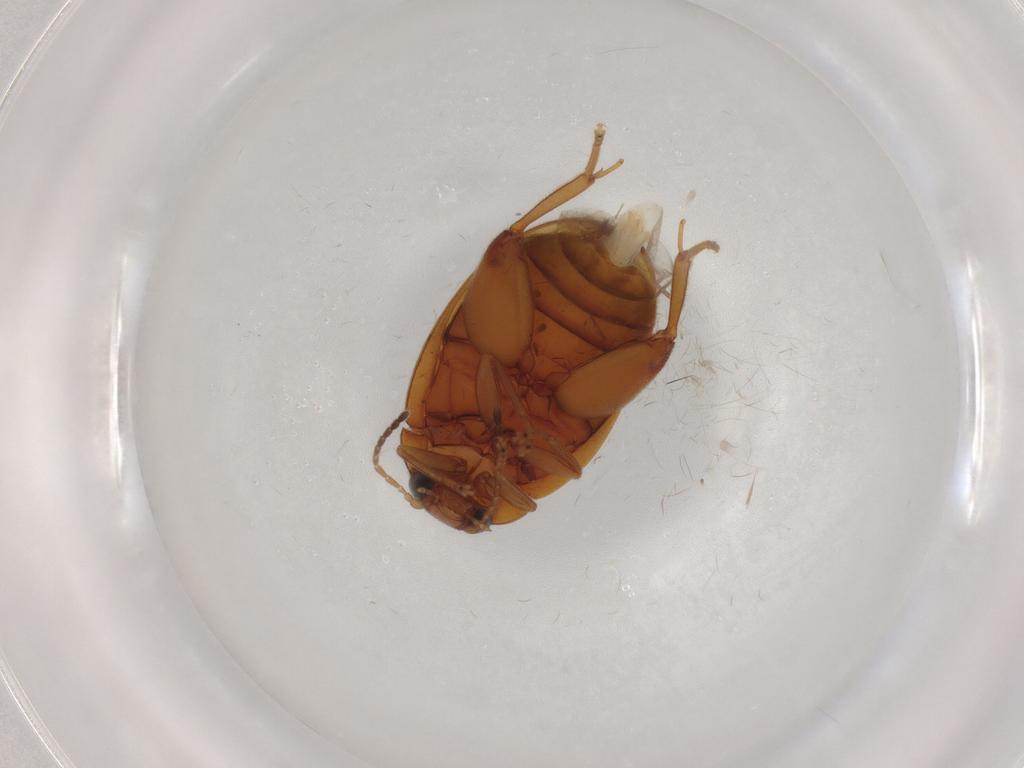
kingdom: Animalia
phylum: Arthropoda
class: Insecta
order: Coleoptera
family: Scirtidae
